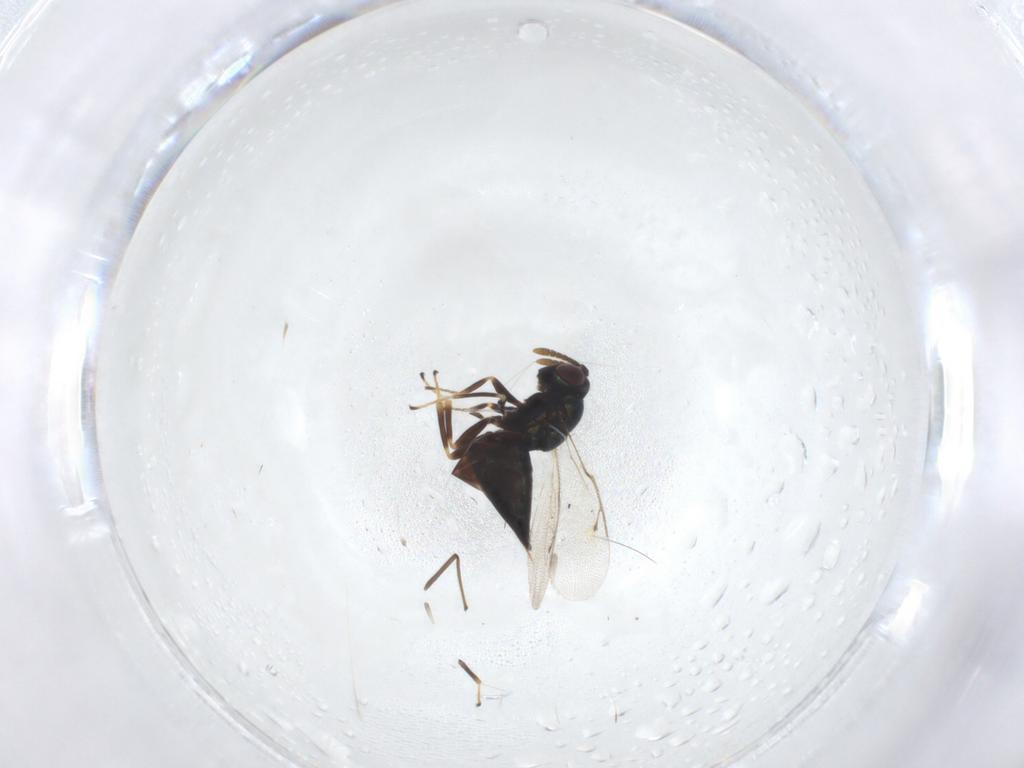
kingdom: Animalia
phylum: Arthropoda
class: Insecta
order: Hymenoptera
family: Pteromalidae
